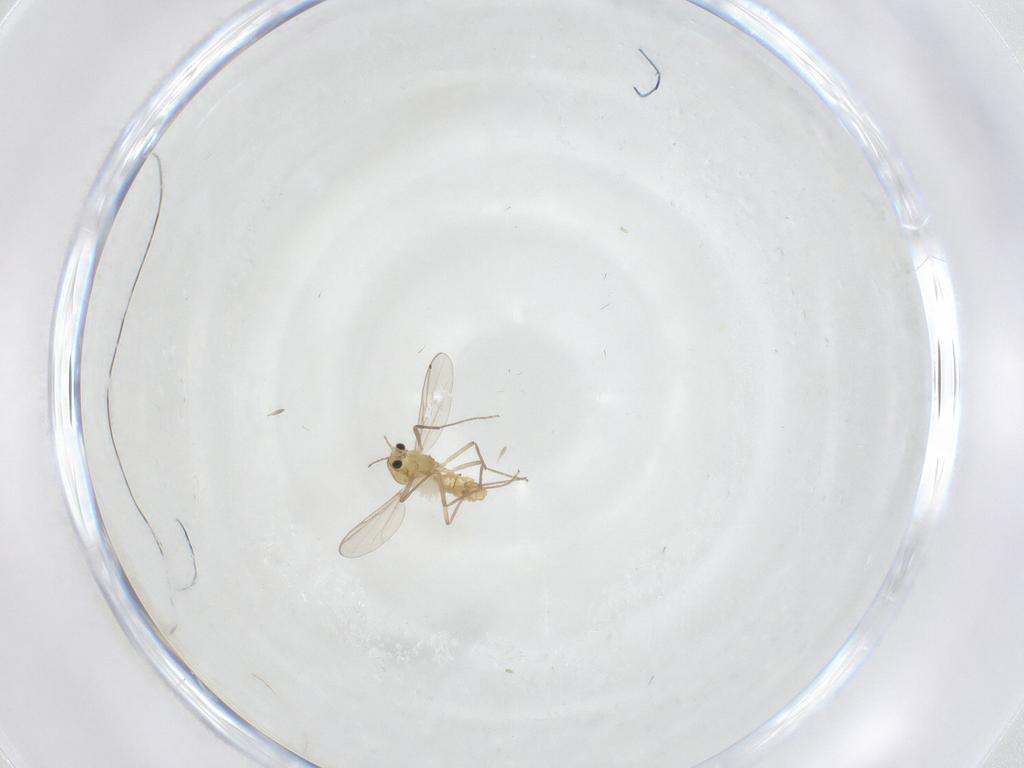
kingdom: Animalia
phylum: Arthropoda
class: Insecta
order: Diptera
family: Chironomidae
